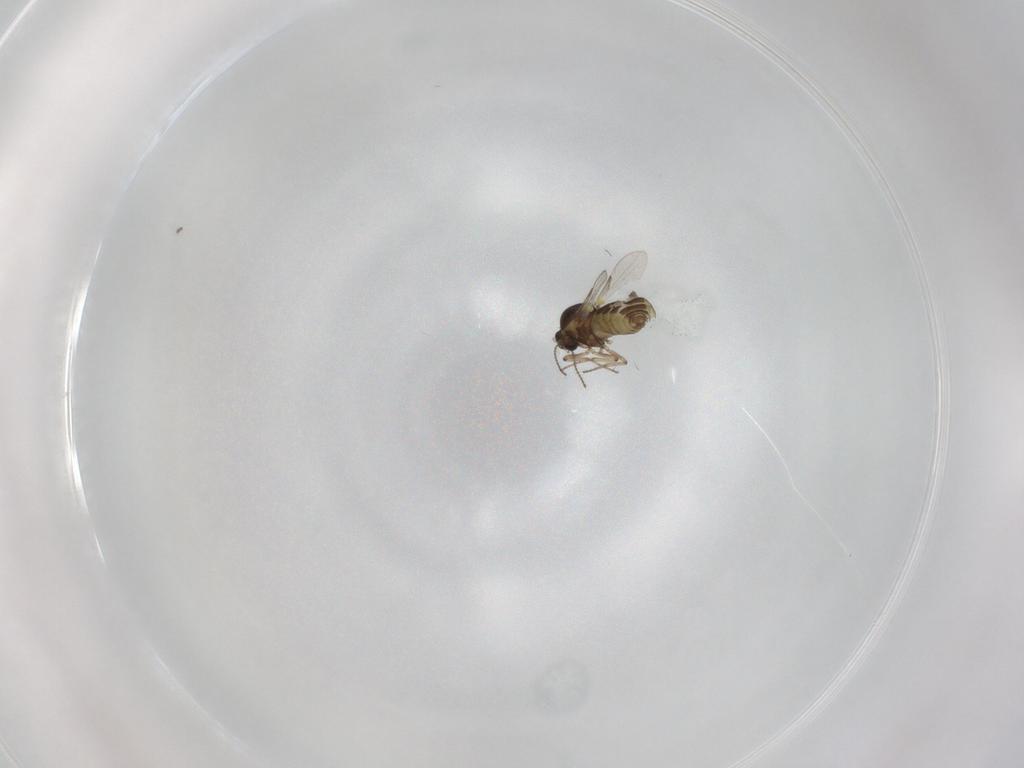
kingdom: Animalia
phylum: Arthropoda
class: Insecta
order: Diptera
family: Ceratopogonidae
